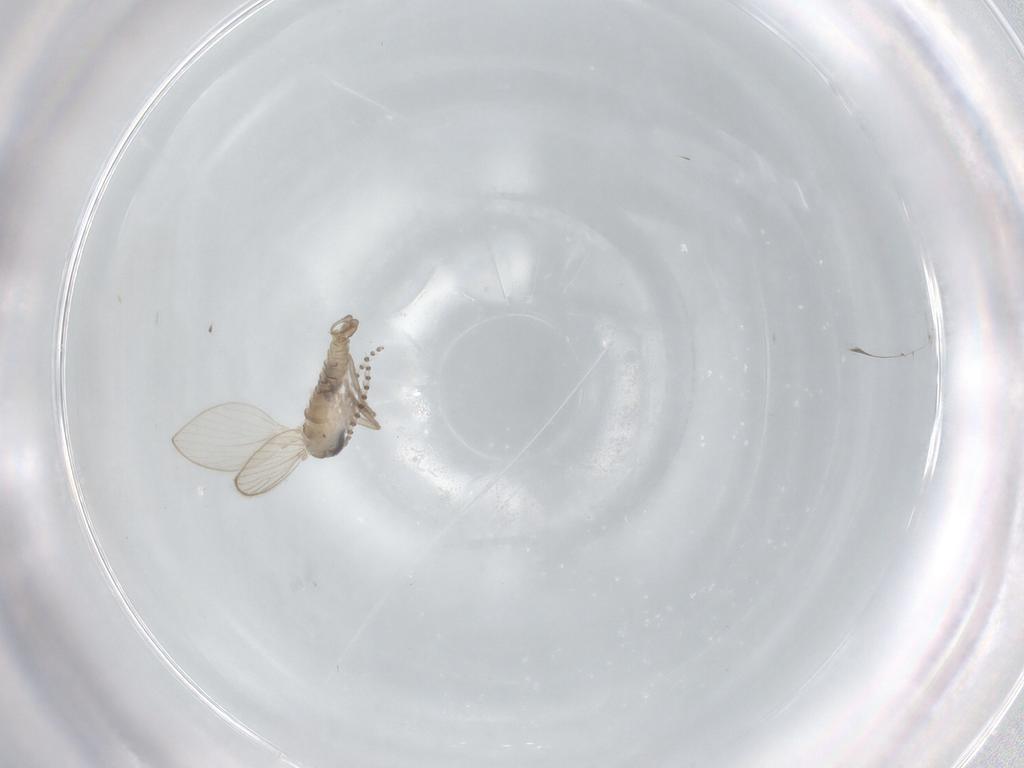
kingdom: Animalia
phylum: Arthropoda
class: Insecta
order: Diptera
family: Psychodidae
